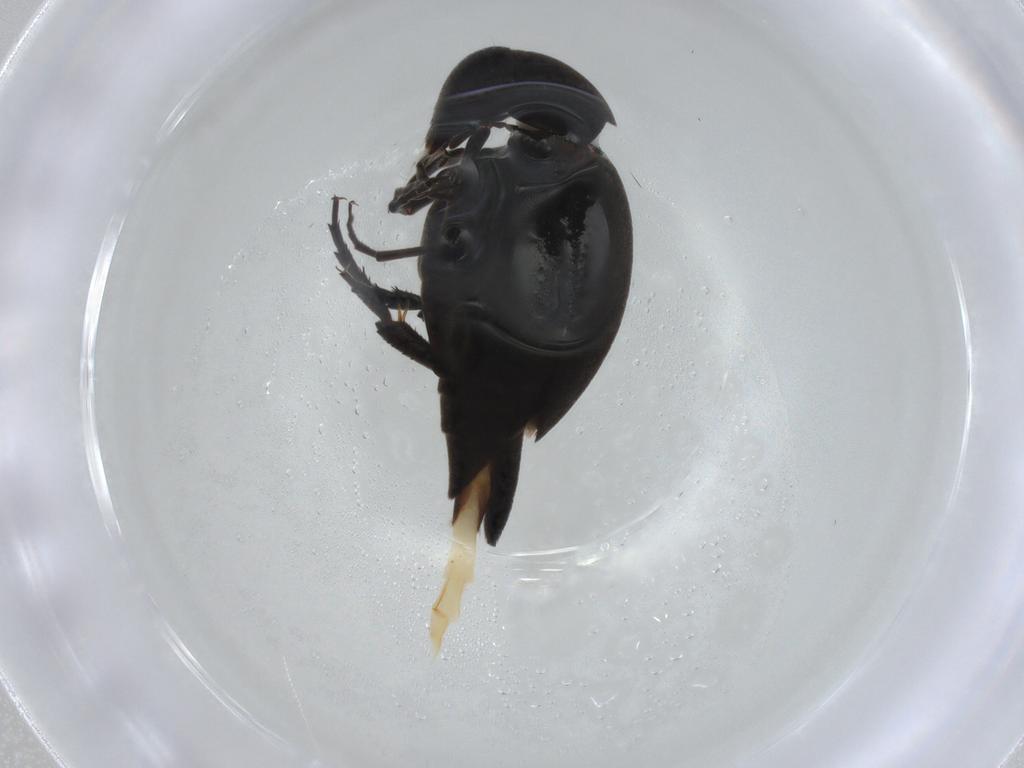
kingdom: Animalia
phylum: Arthropoda
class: Insecta
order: Coleoptera
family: Mordellidae
